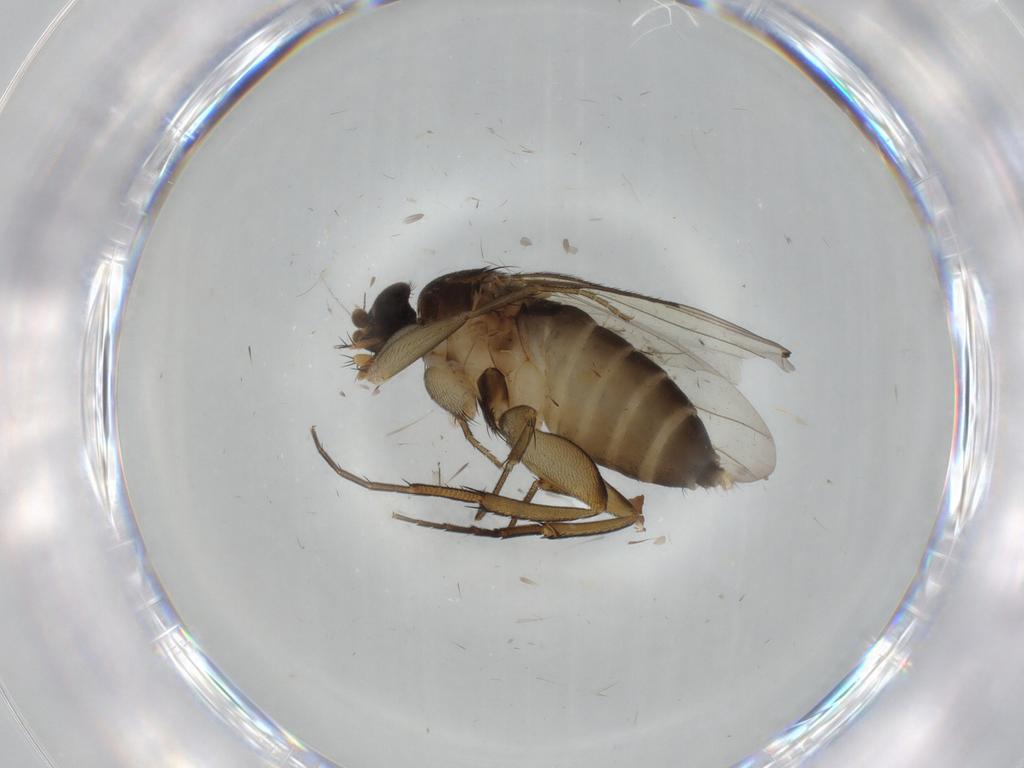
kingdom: Animalia
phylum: Arthropoda
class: Insecta
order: Diptera
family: Phoridae
